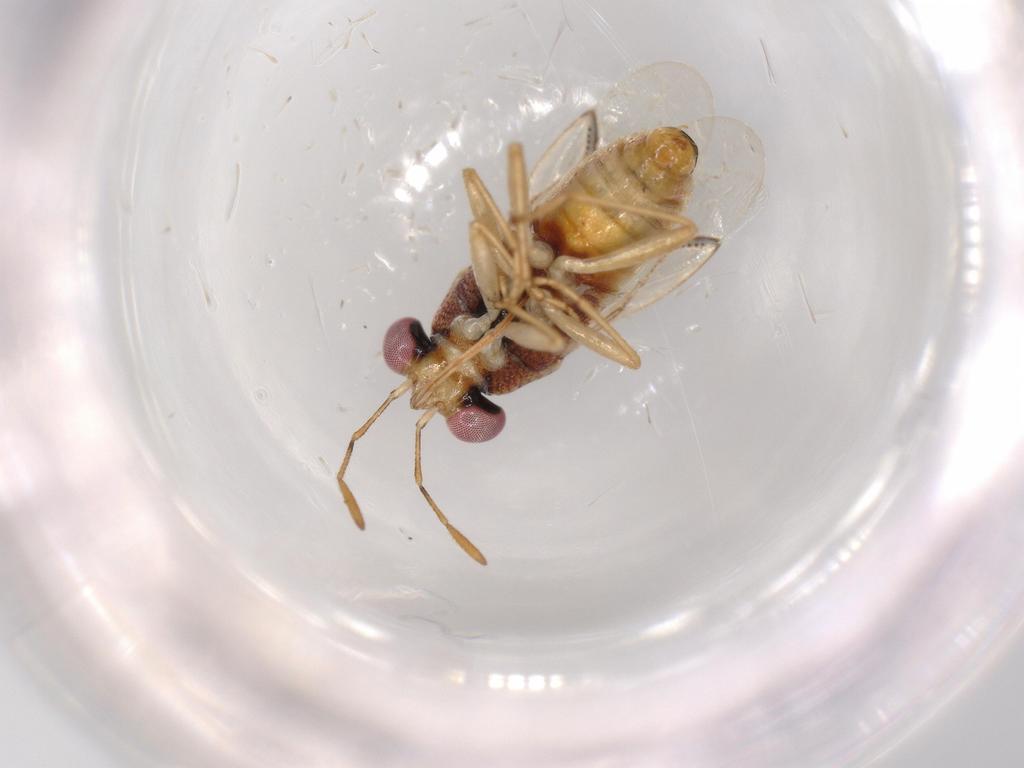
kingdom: Animalia
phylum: Arthropoda
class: Insecta
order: Hemiptera
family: Geocoridae
